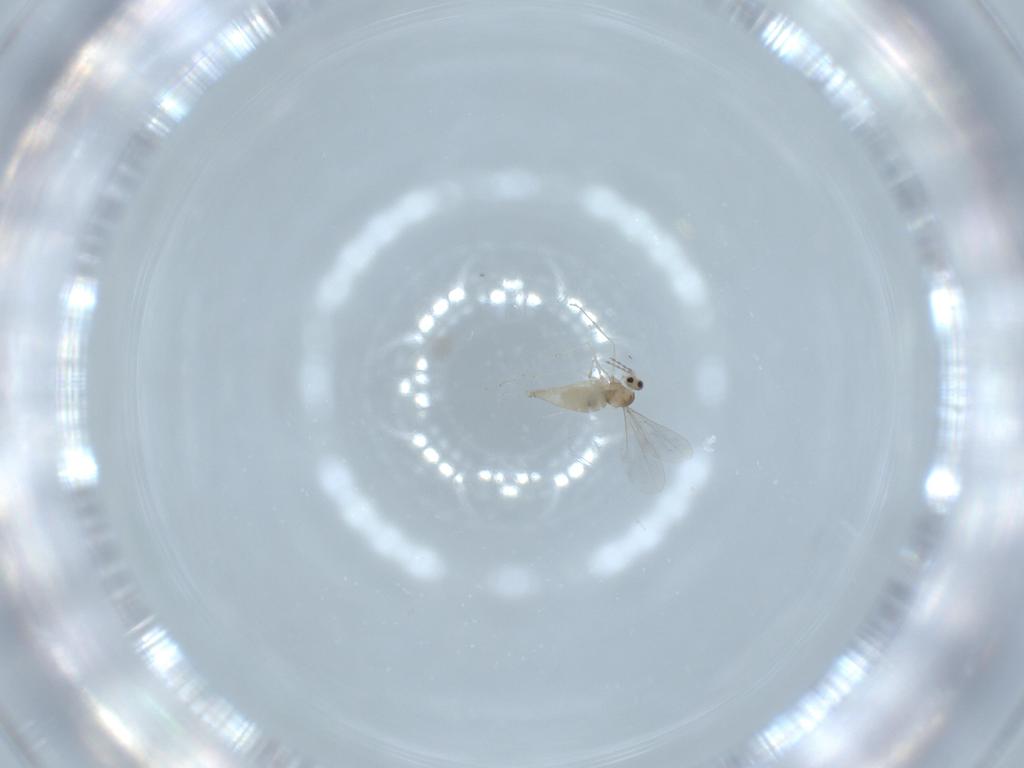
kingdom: Animalia
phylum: Arthropoda
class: Insecta
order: Diptera
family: Cecidomyiidae
